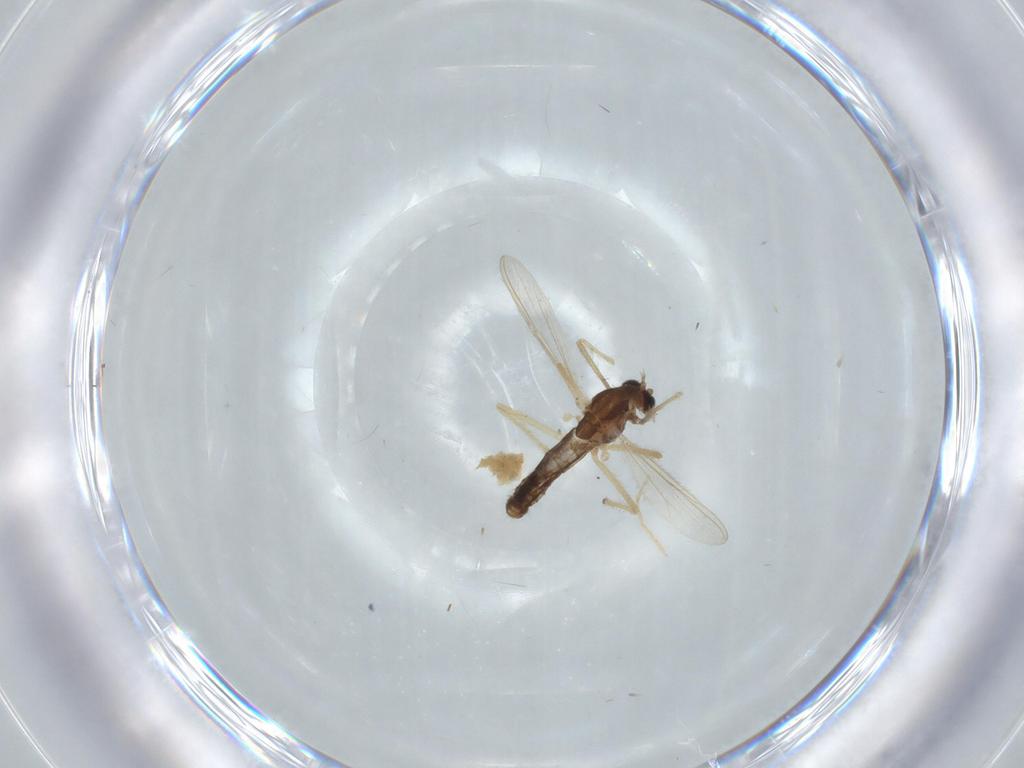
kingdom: Animalia
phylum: Arthropoda
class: Insecta
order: Diptera
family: Chironomidae
